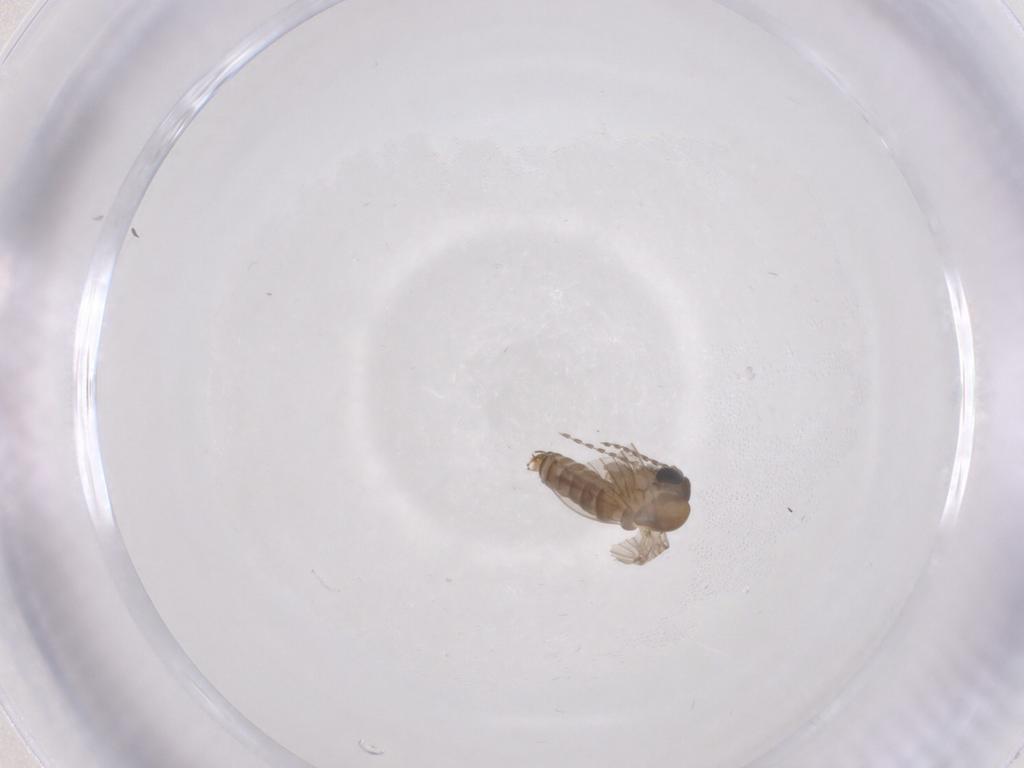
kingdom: Animalia
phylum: Arthropoda
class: Insecta
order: Diptera
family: Psychodidae
